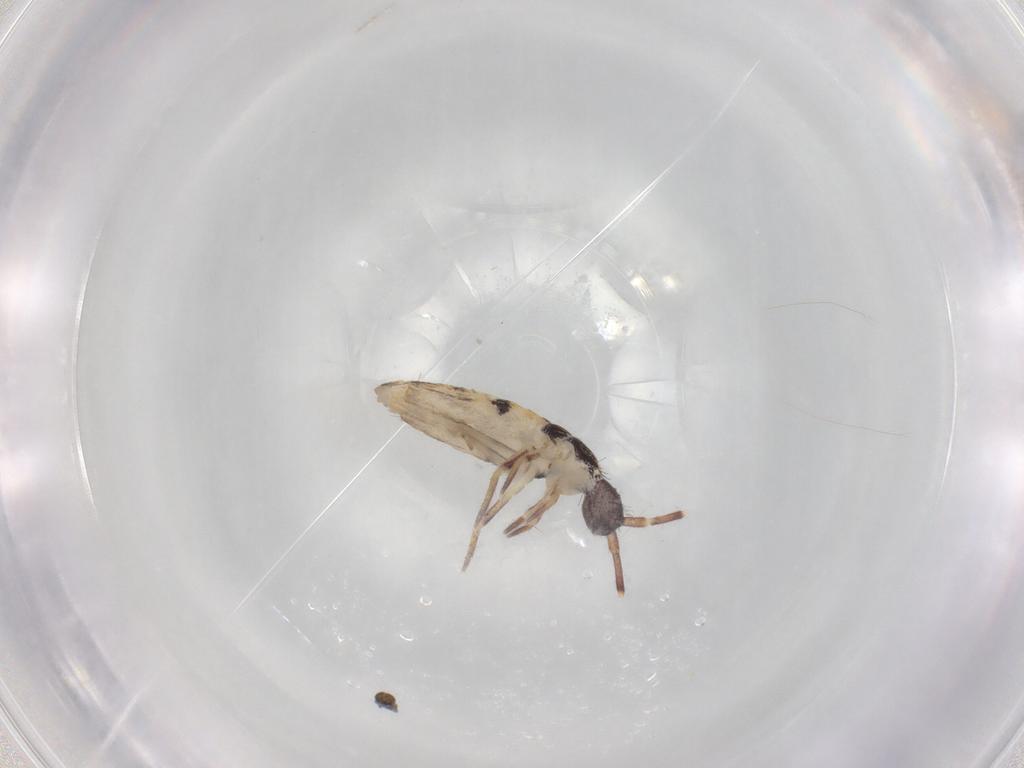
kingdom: Animalia
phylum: Arthropoda
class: Collembola
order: Entomobryomorpha
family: Entomobryidae
